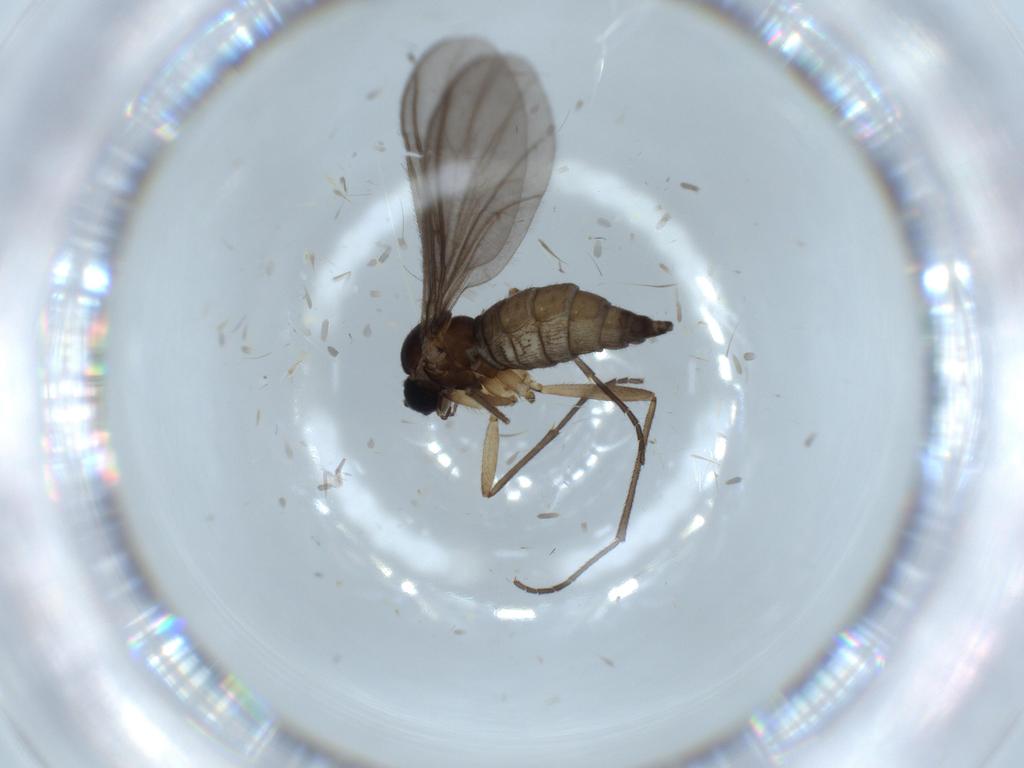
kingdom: Animalia
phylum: Arthropoda
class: Insecta
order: Diptera
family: Sciaridae
